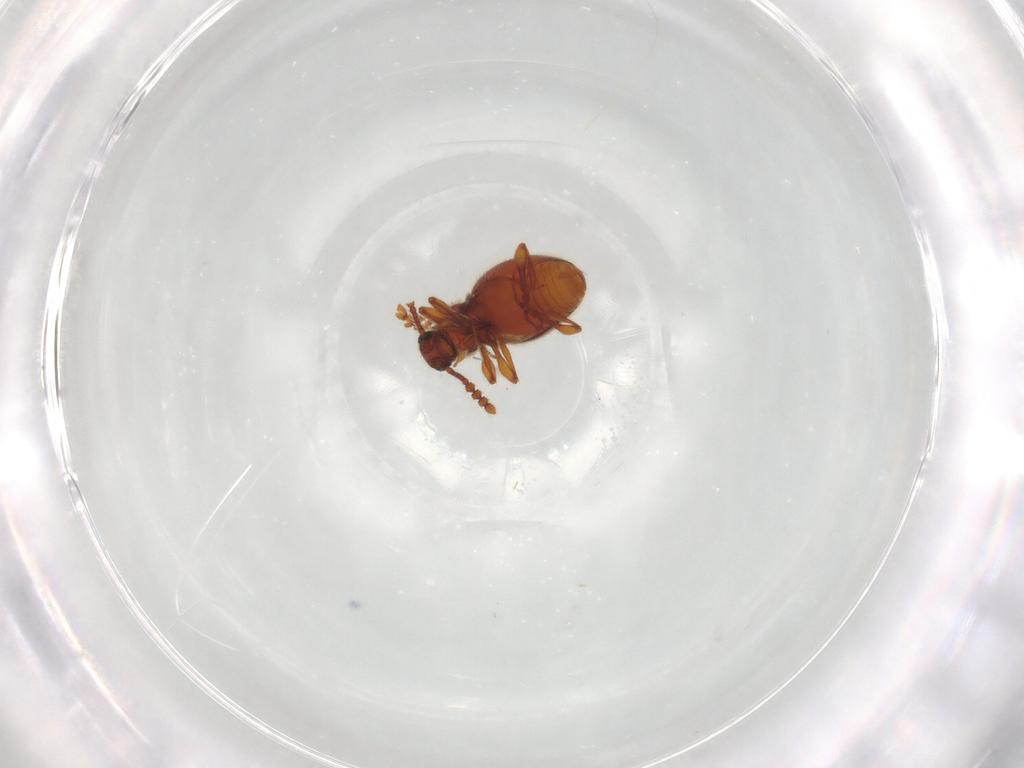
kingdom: Animalia
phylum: Arthropoda
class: Insecta
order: Coleoptera
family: Staphylinidae
